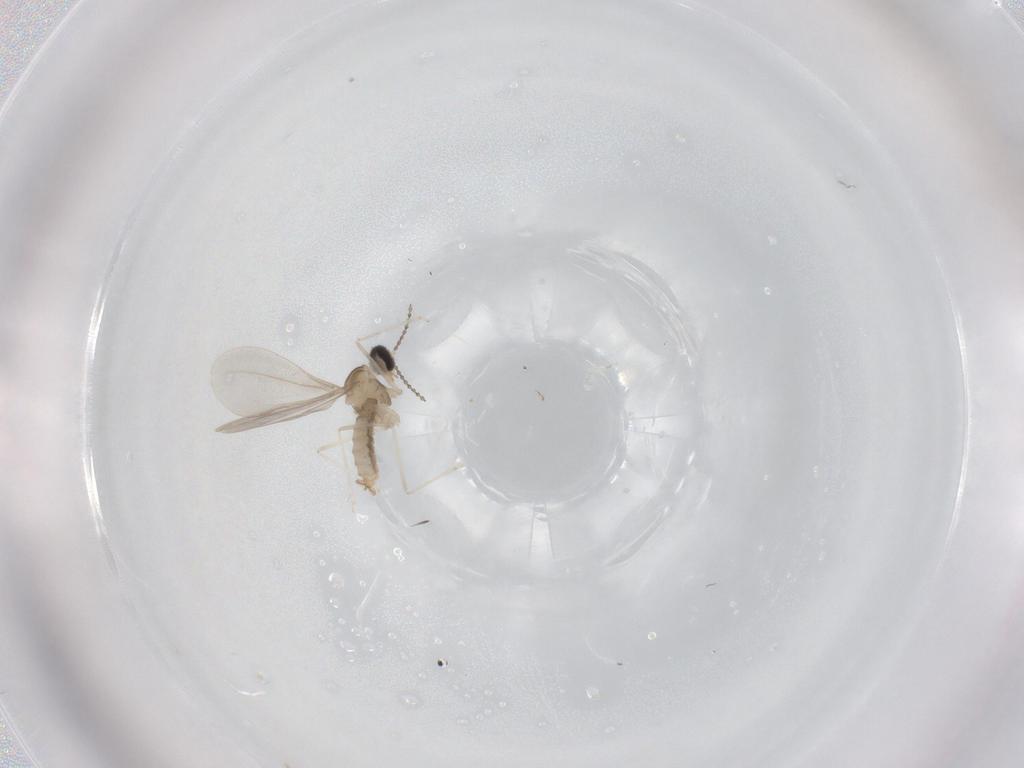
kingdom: Animalia
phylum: Arthropoda
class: Insecta
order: Diptera
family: Cecidomyiidae
